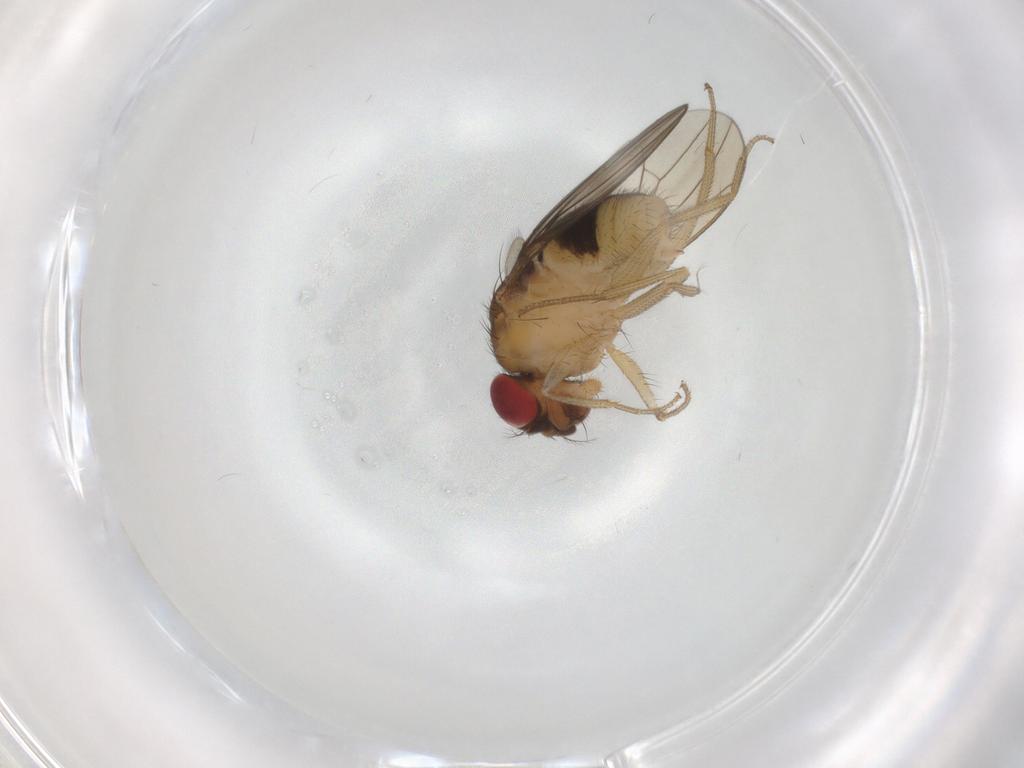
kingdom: Animalia
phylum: Arthropoda
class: Insecta
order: Diptera
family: Drosophilidae
